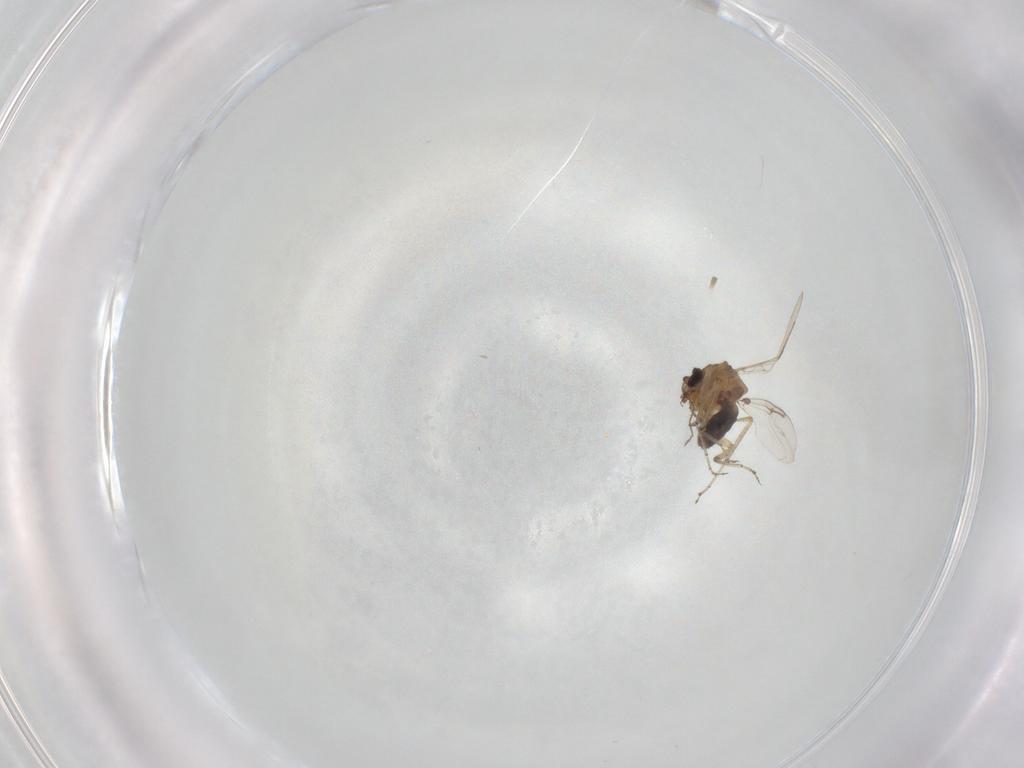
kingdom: Animalia
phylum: Arthropoda
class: Insecta
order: Diptera
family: Ceratopogonidae
